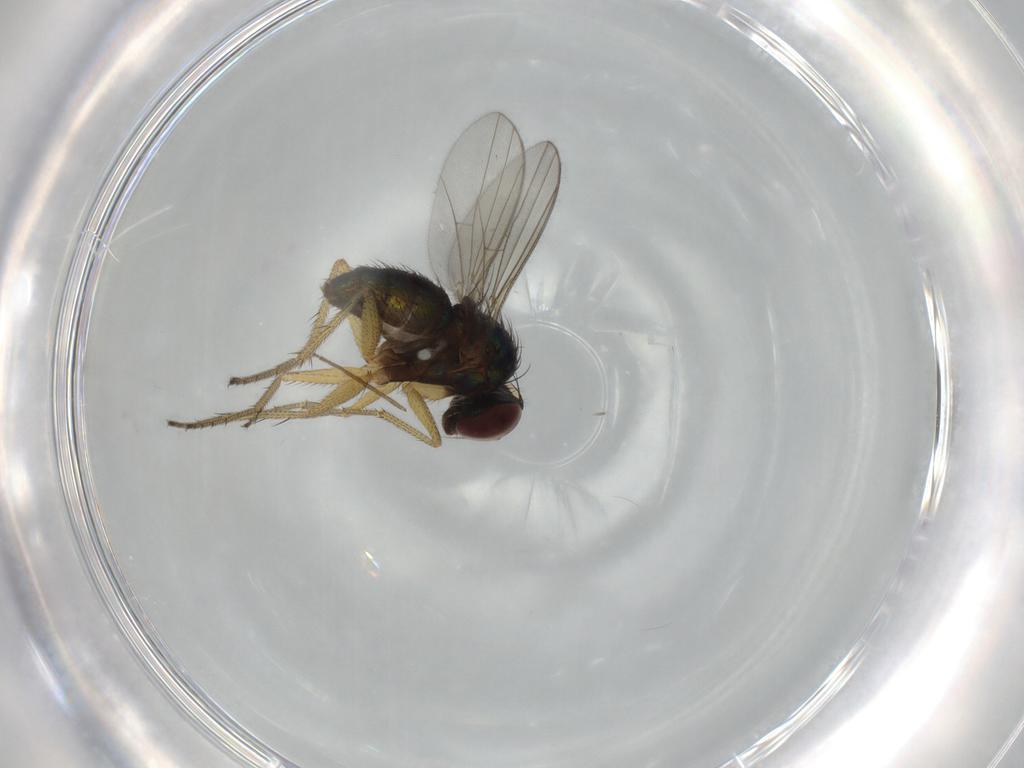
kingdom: Animalia
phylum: Arthropoda
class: Insecta
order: Diptera
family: Dolichopodidae
